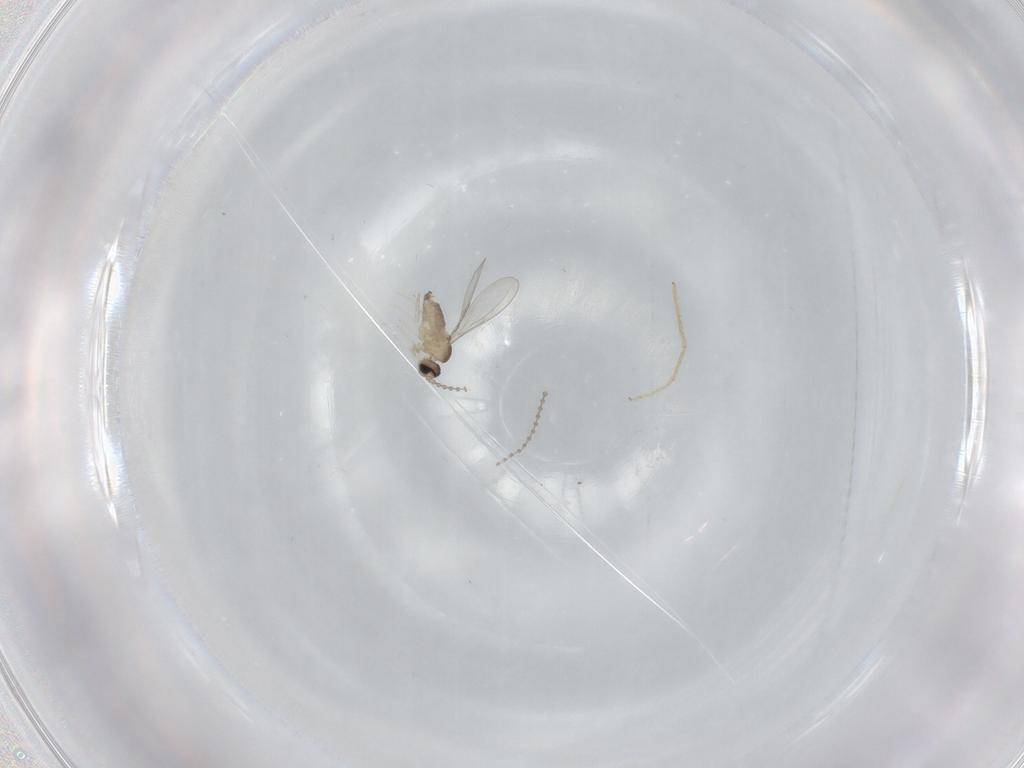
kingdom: Animalia
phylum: Arthropoda
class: Insecta
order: Diptera
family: Cecidomyiidae
